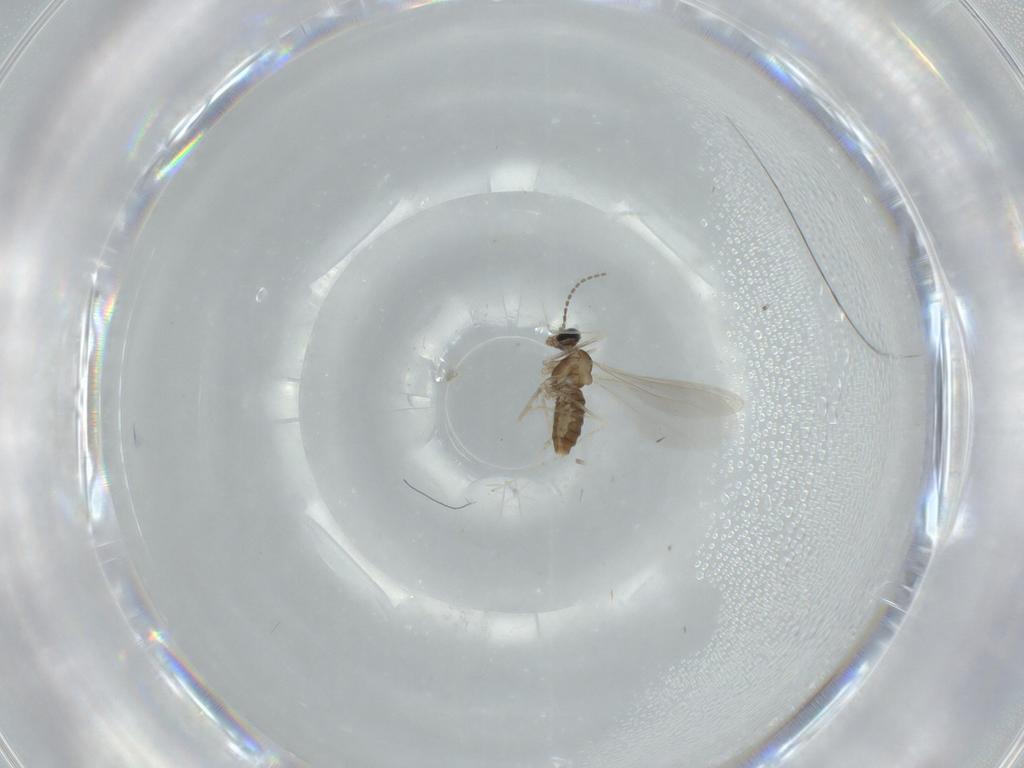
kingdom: Animalia
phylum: Arthropoda
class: Insecta
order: Diptera
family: Cecidomyiidae
